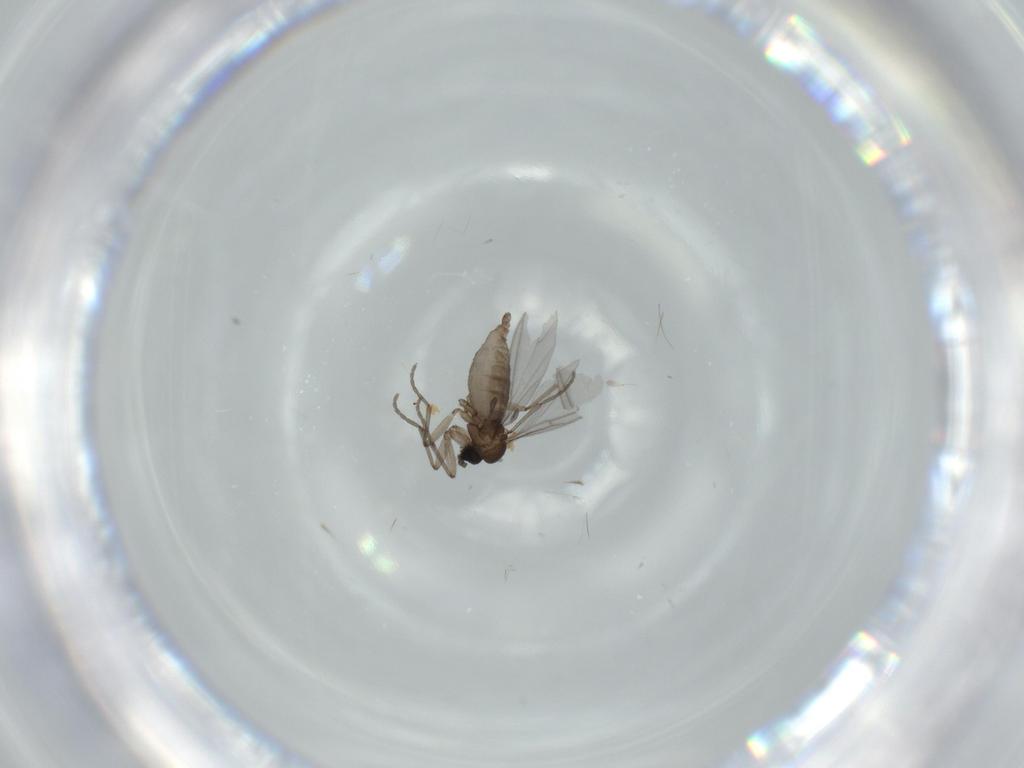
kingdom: Animalia
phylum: Arthropoda
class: Insecta
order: Diptera
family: Sciaridae
